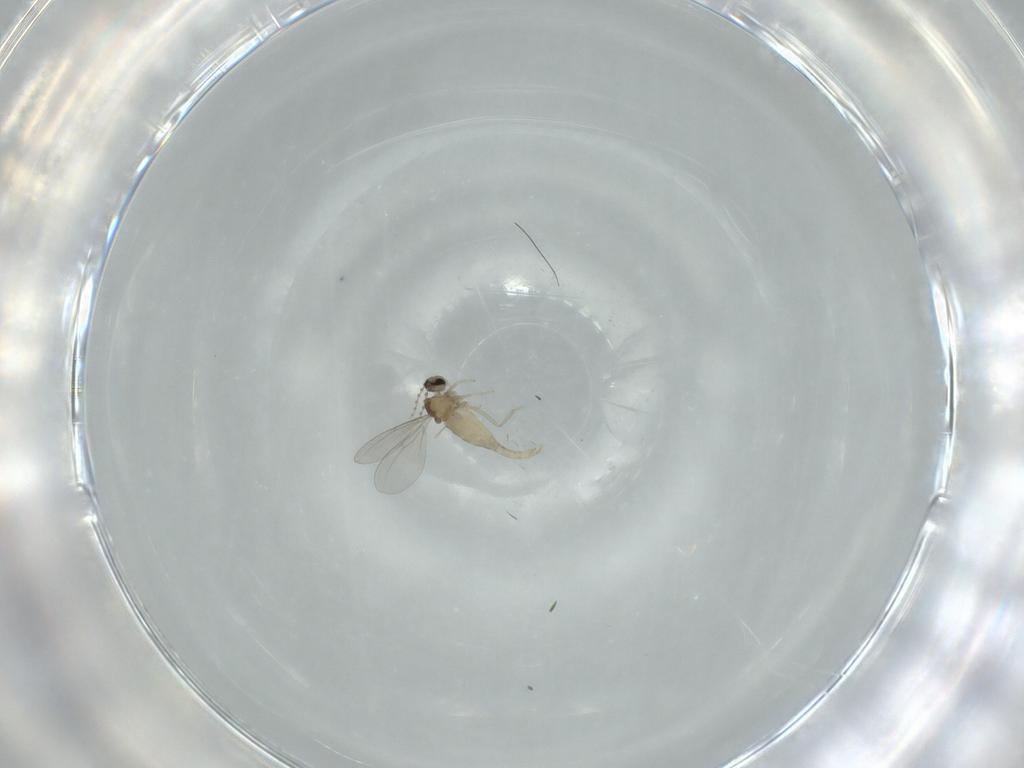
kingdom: Animalia
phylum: Arthropoda
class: Insecta
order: Diptera
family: Cecidomyiidae
